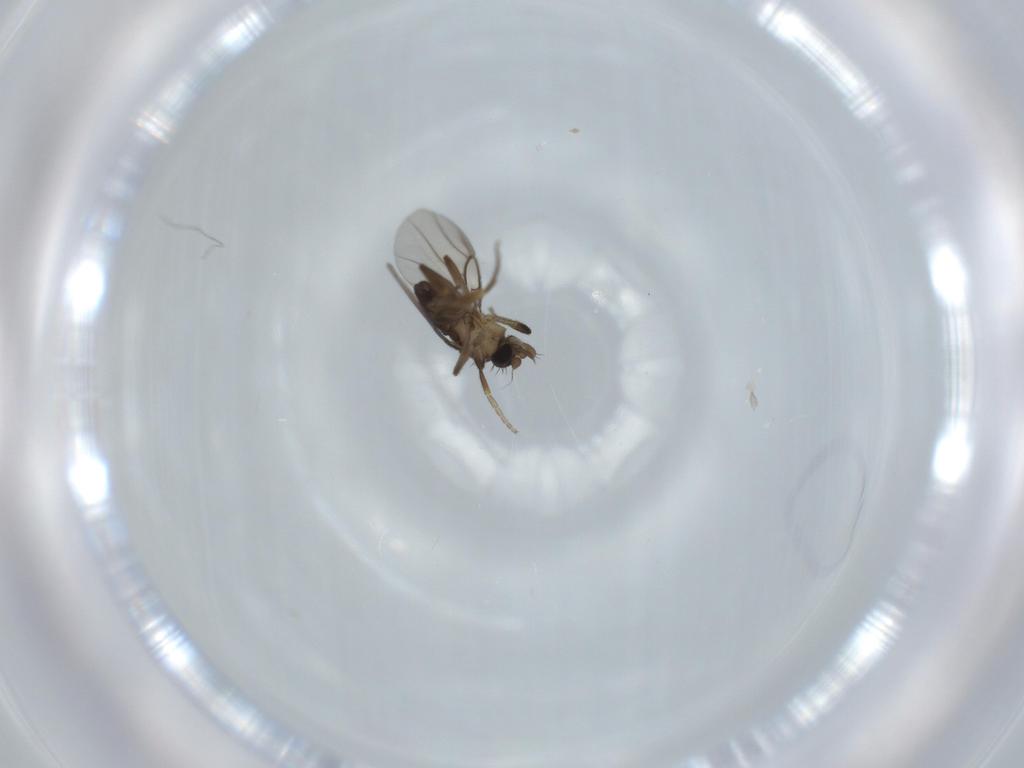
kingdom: Animalia
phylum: Arthropoda
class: Insecta
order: Diptera
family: Phoridae
